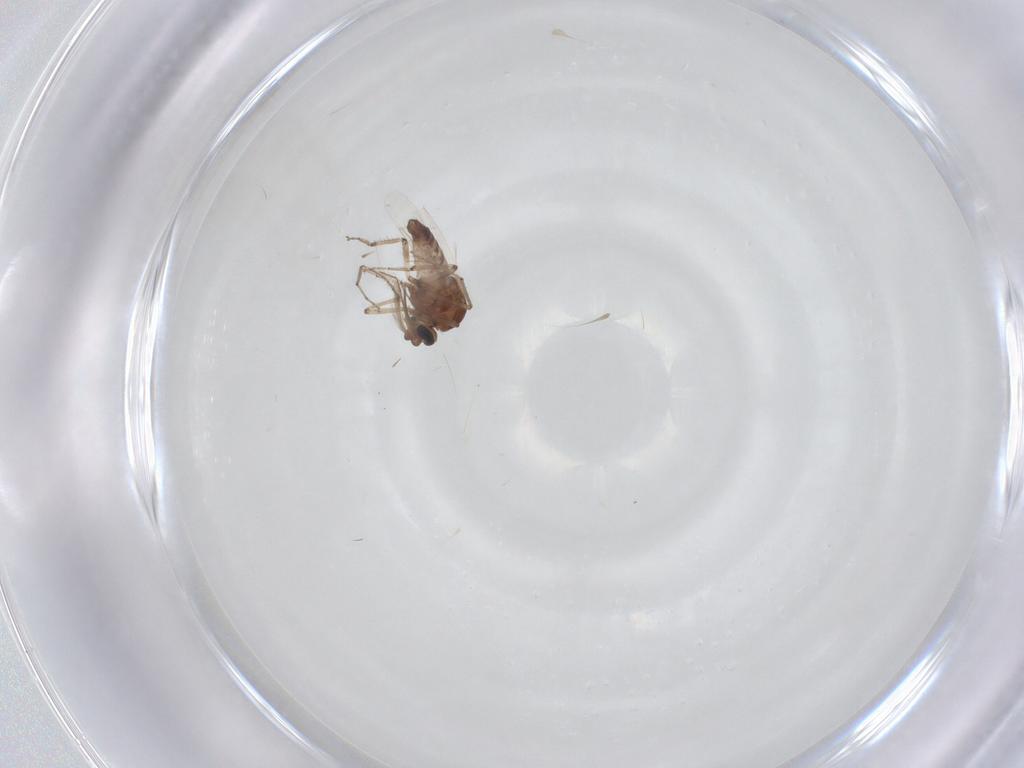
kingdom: Animalia
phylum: Arthropoda
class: Insecta
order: Diptera
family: Ceratopogonidae
